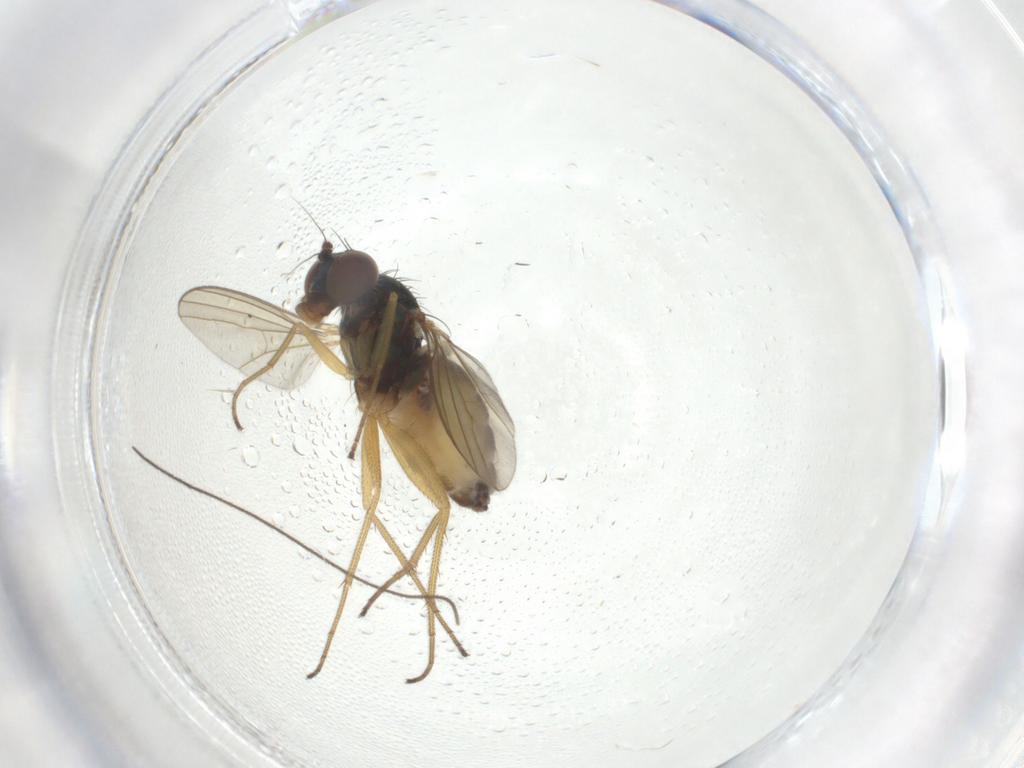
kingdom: Animalia
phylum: Arthropoda
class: Insecta
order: Diptera
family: Dolichopodidae
